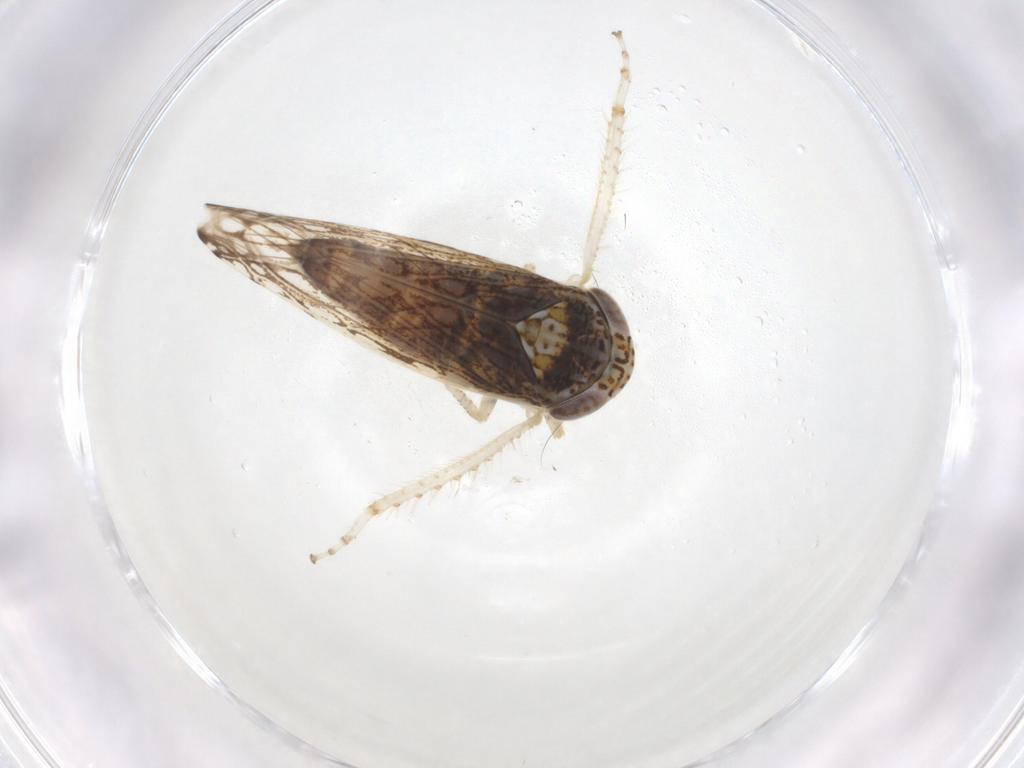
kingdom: Animalia
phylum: Arthropoda
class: Insecta
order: Hemiptera
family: Cicadellidae
